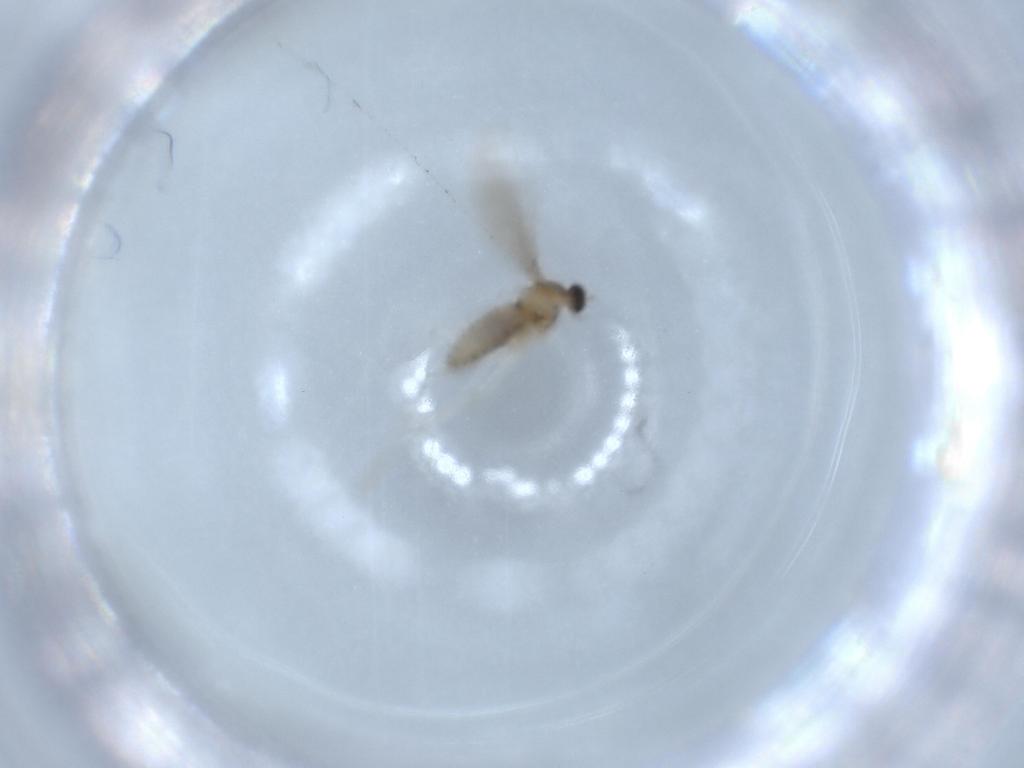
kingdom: Animalia
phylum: Arthropoda
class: Insecta
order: Diptera
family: Cecidomyiidae
